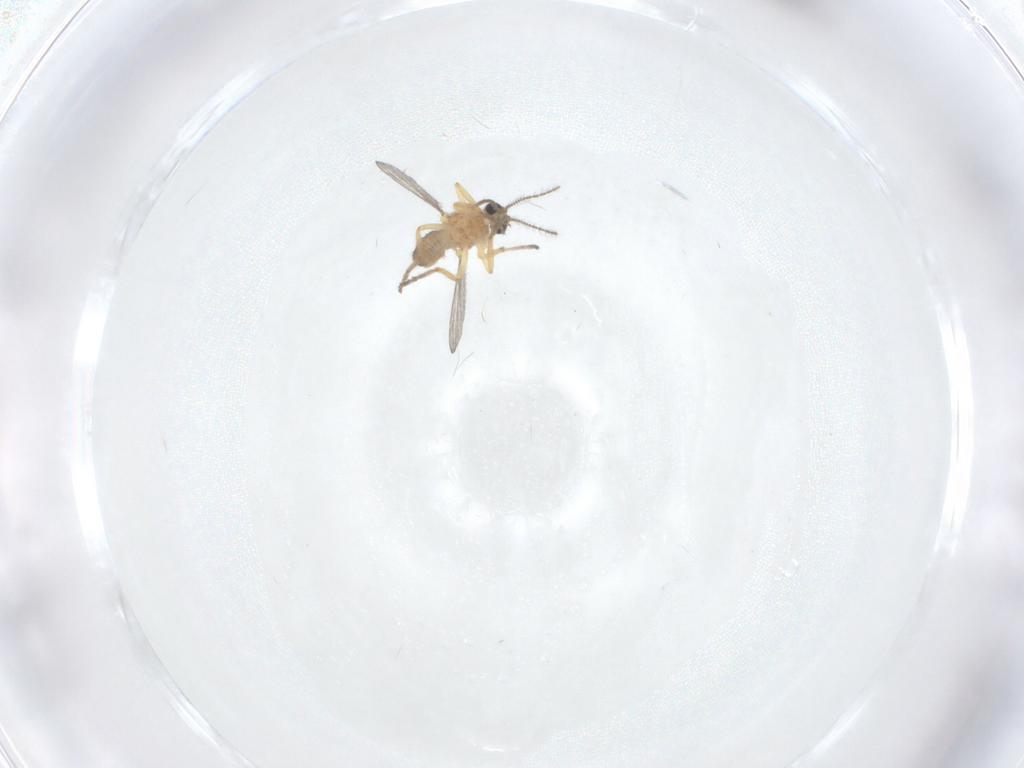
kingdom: Animalia
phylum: Arthropoda
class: Insecta
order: Diptera
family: Ceratopogonidae
